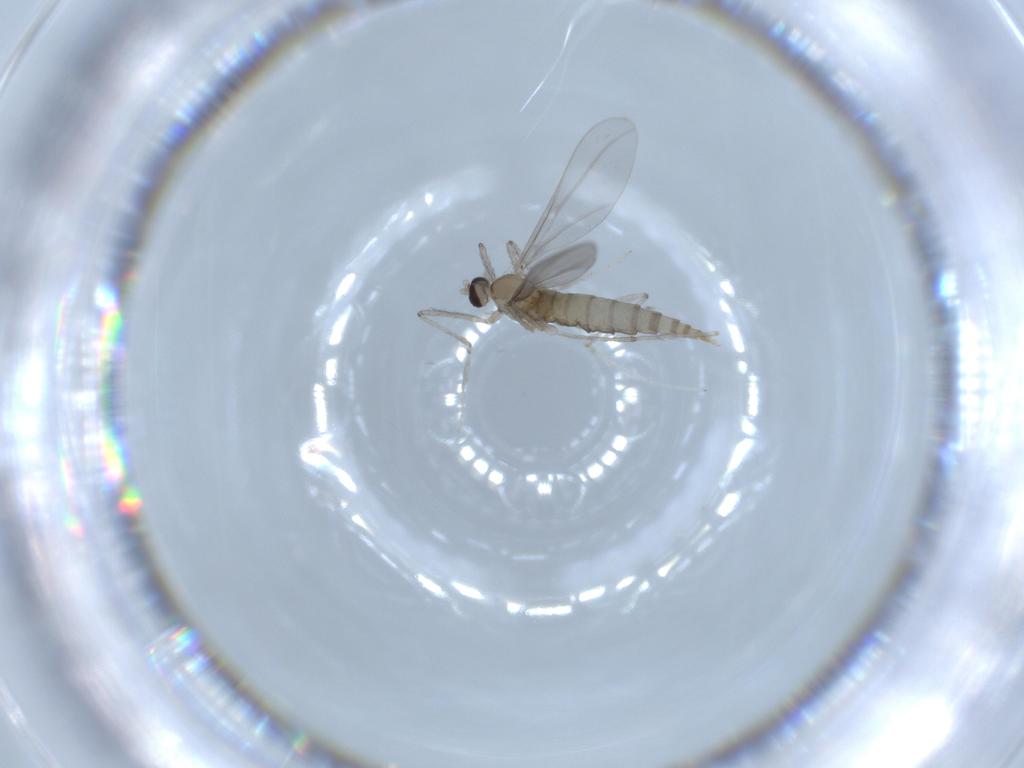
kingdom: Animalia
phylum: Arthropoda
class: Insecta
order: Diptera
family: Cecidomyiidae
